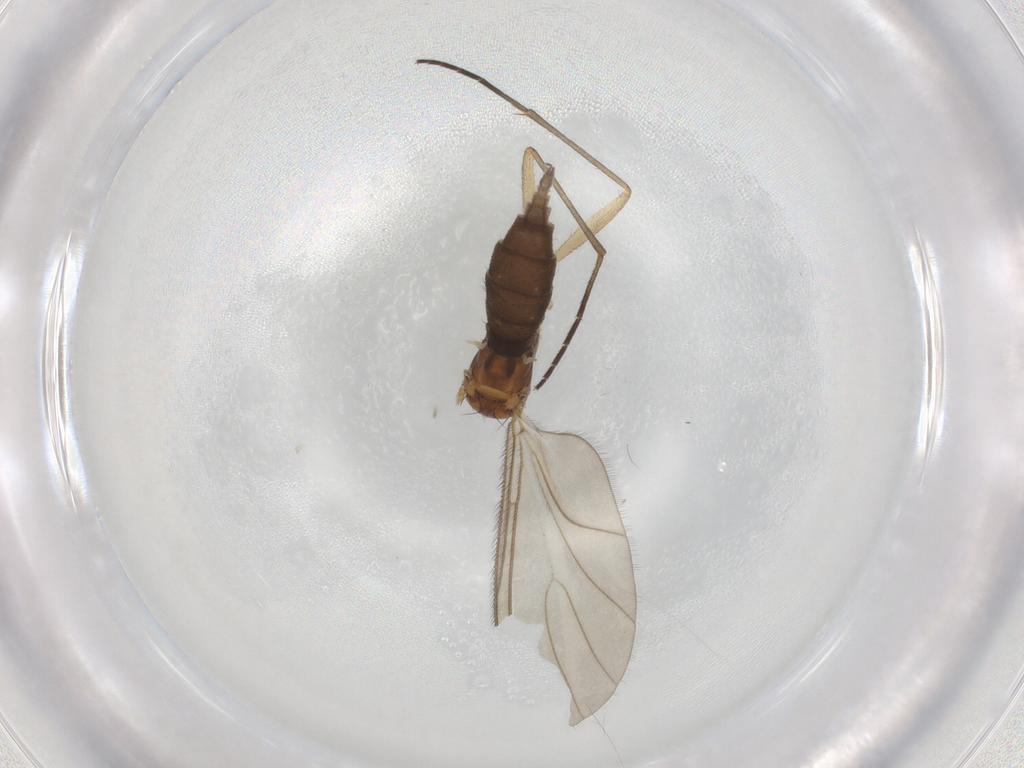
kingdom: Animalia
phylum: Arthropoda
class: Insecta
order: Diptera
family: Sciaridae
